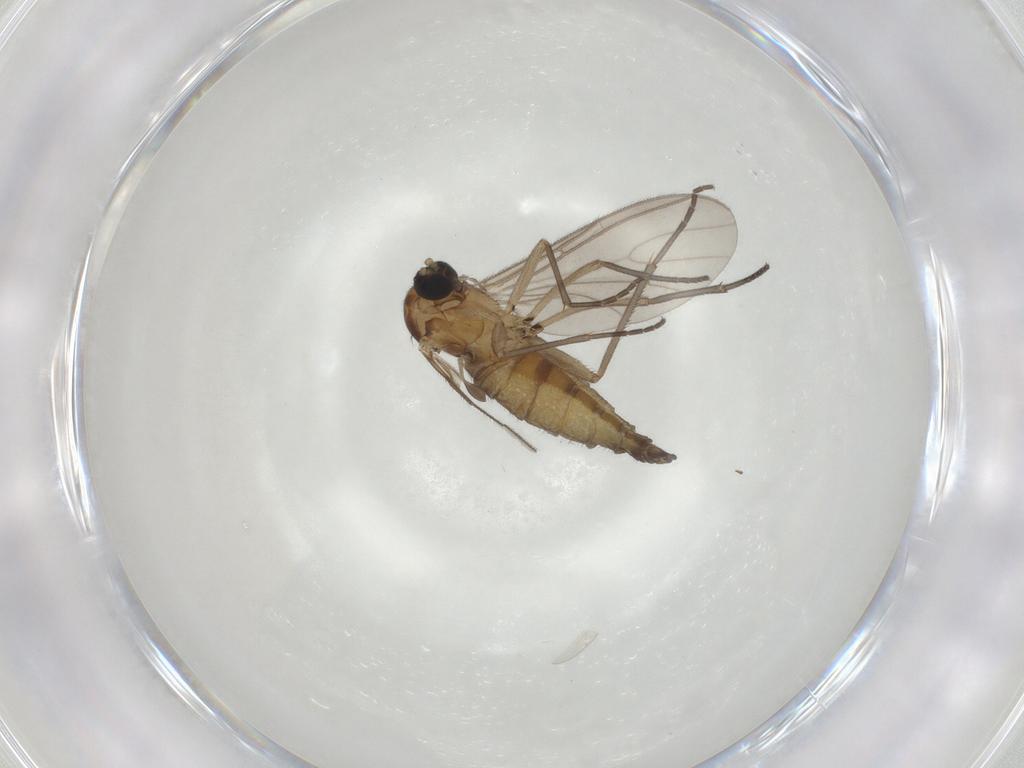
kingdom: Animalia
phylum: Arthropoda
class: Insecta
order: Diptera
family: Sciaridae
